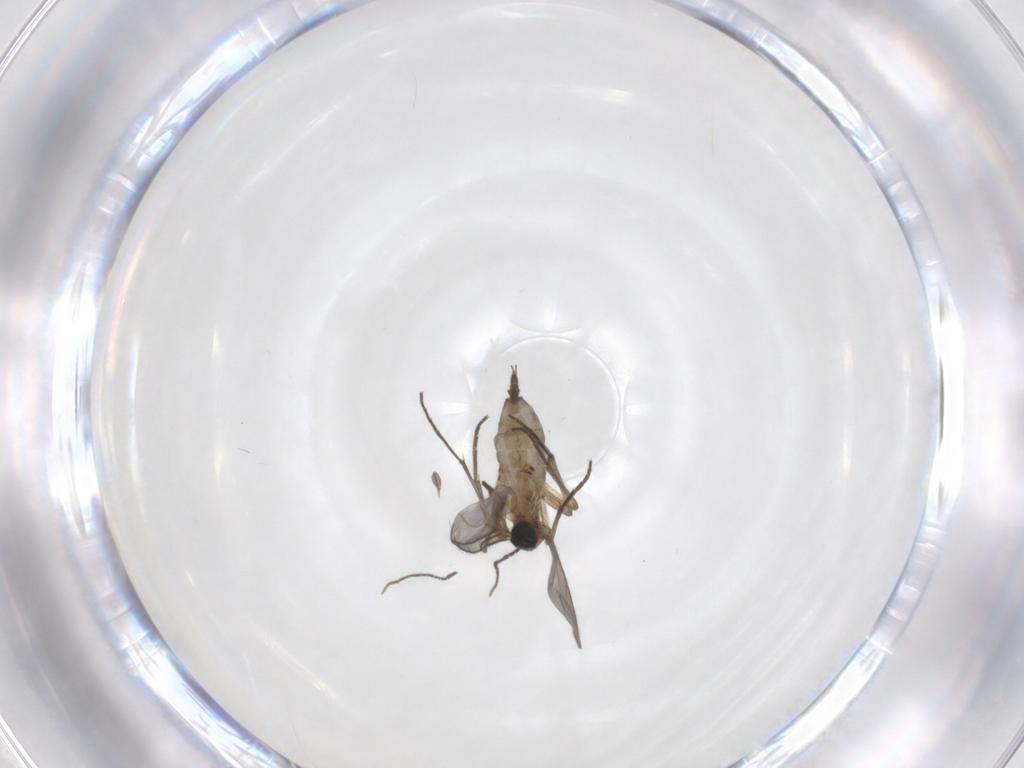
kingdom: Animalia
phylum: Arthropoda
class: Insecta
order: Diptera
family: Sciaridae
